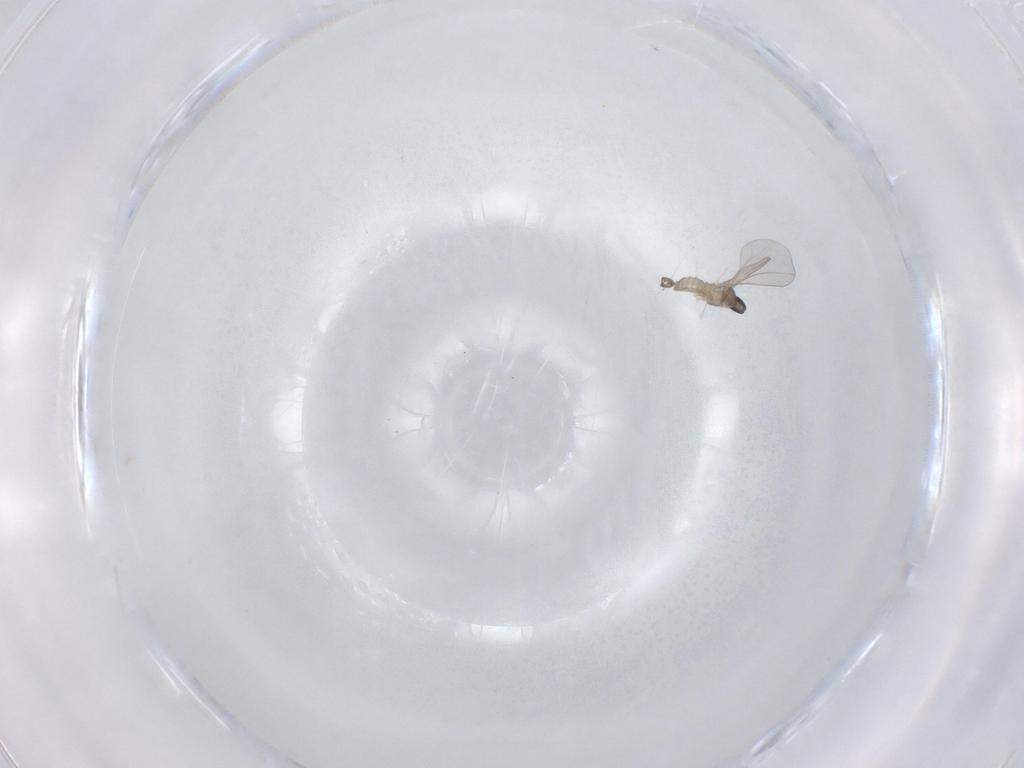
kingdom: Animalia
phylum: Arthropoda
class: Insecta
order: Diptera
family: Cecidomyiidae
